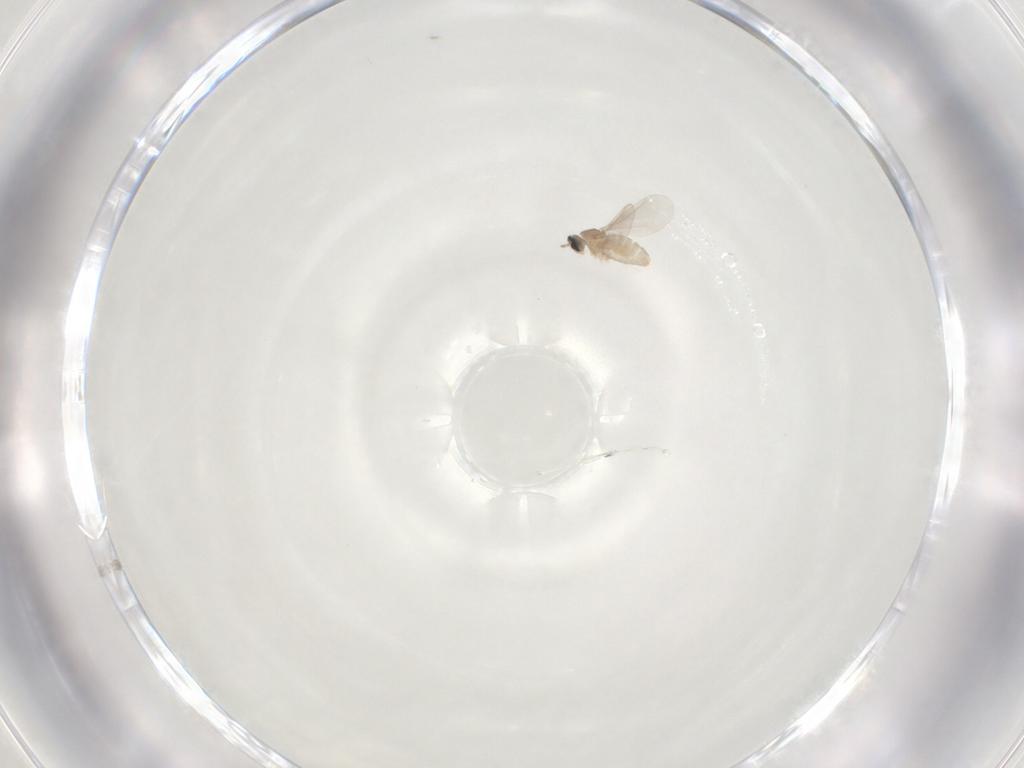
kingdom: Animalia
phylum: Arthropoda
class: Insecta
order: Diptera
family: Cecidomyiidae
